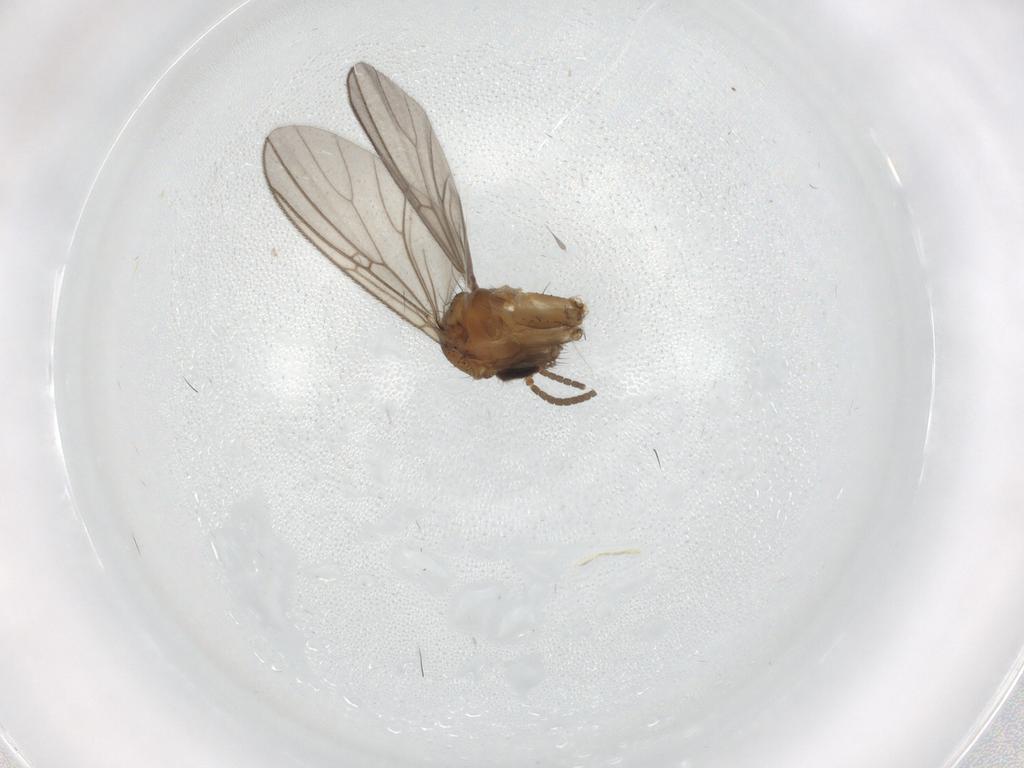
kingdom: Animalia
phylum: Arthropoda
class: Insecta
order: Diptera
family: Mycetophilidae
